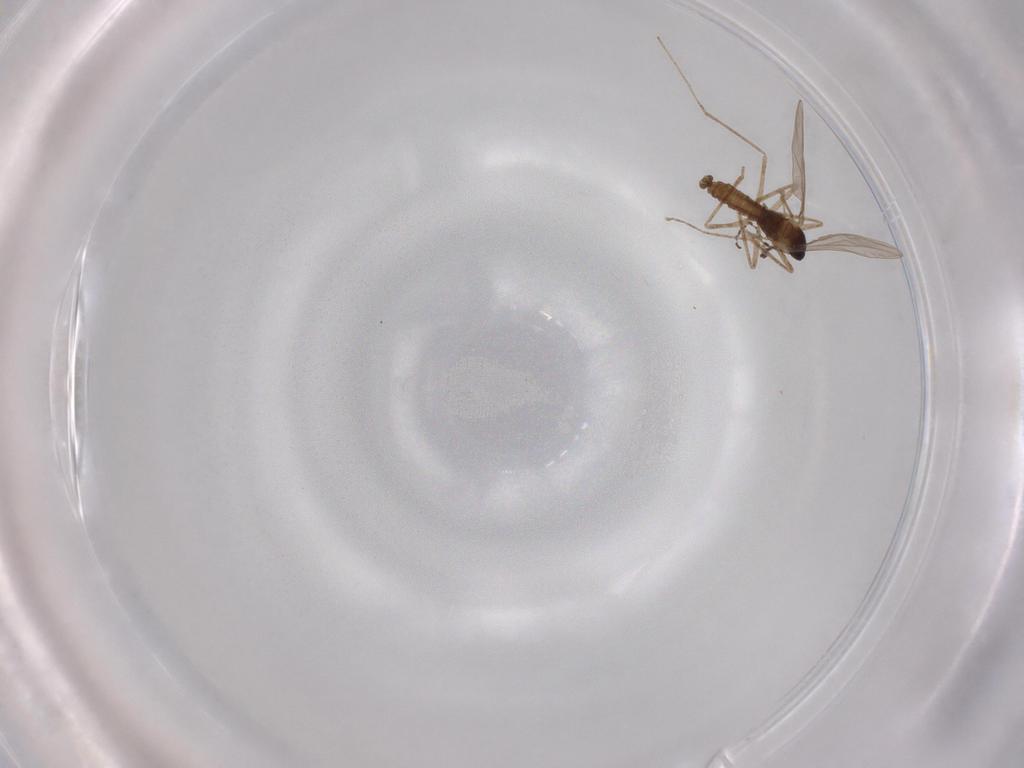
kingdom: Animalia
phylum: Arthropoda
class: Insecta
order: Diptera
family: Cecidomyiidae
